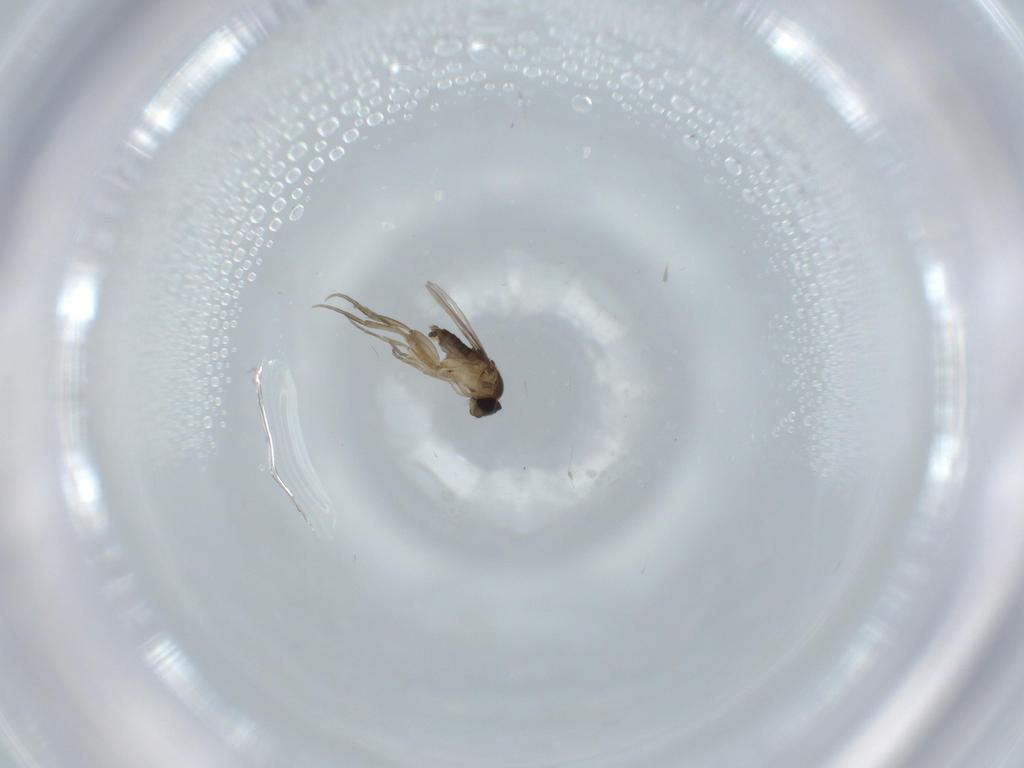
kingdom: Animalia
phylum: Arthropoda
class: Insecta
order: Diptera
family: Phoridae
